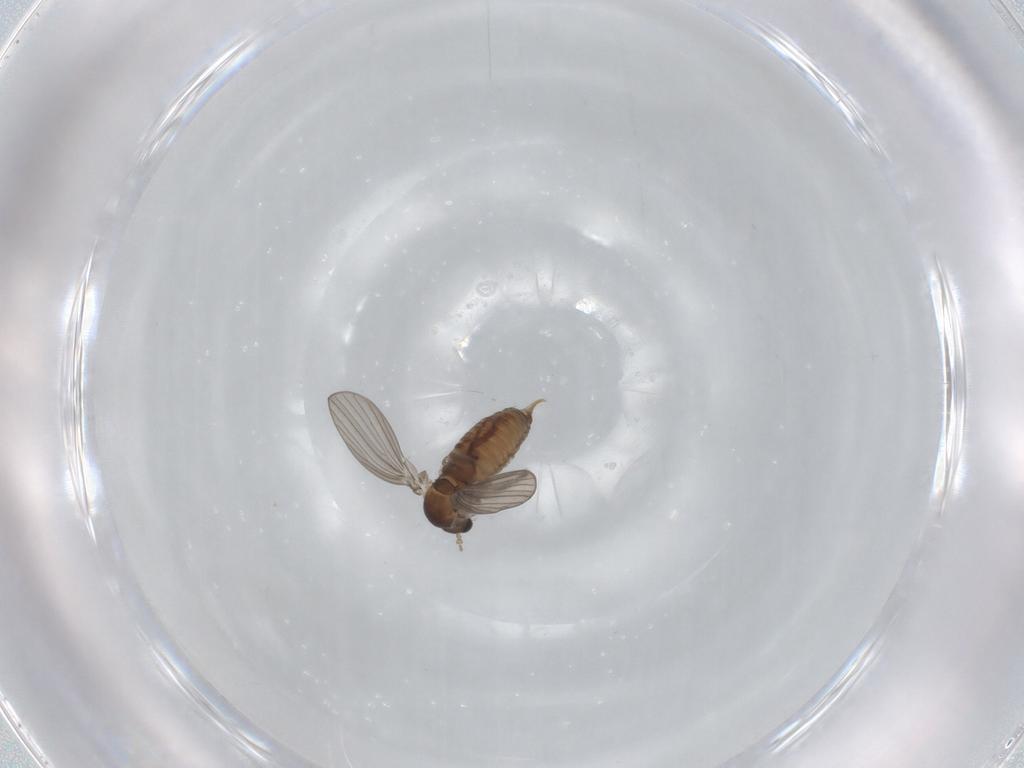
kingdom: Animalia
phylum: Arthropoda
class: Insecta
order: Diptera
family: Psychodidae
